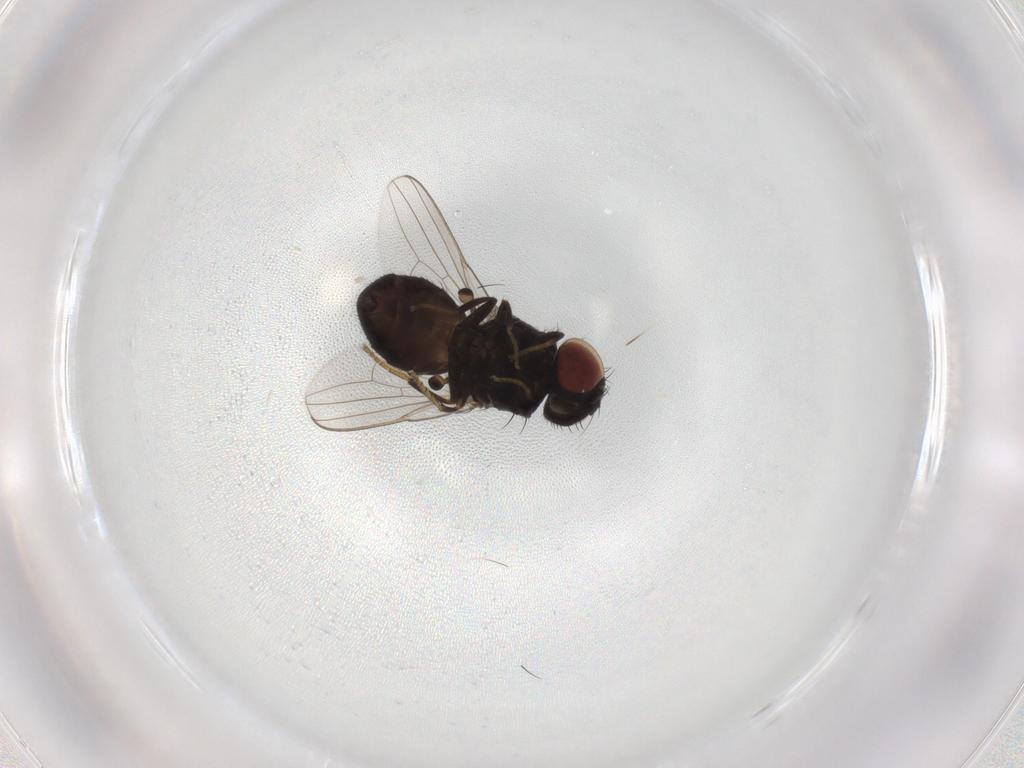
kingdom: Animalia
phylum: Arthropoda
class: Insecta
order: Diptera
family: Milichiidae
